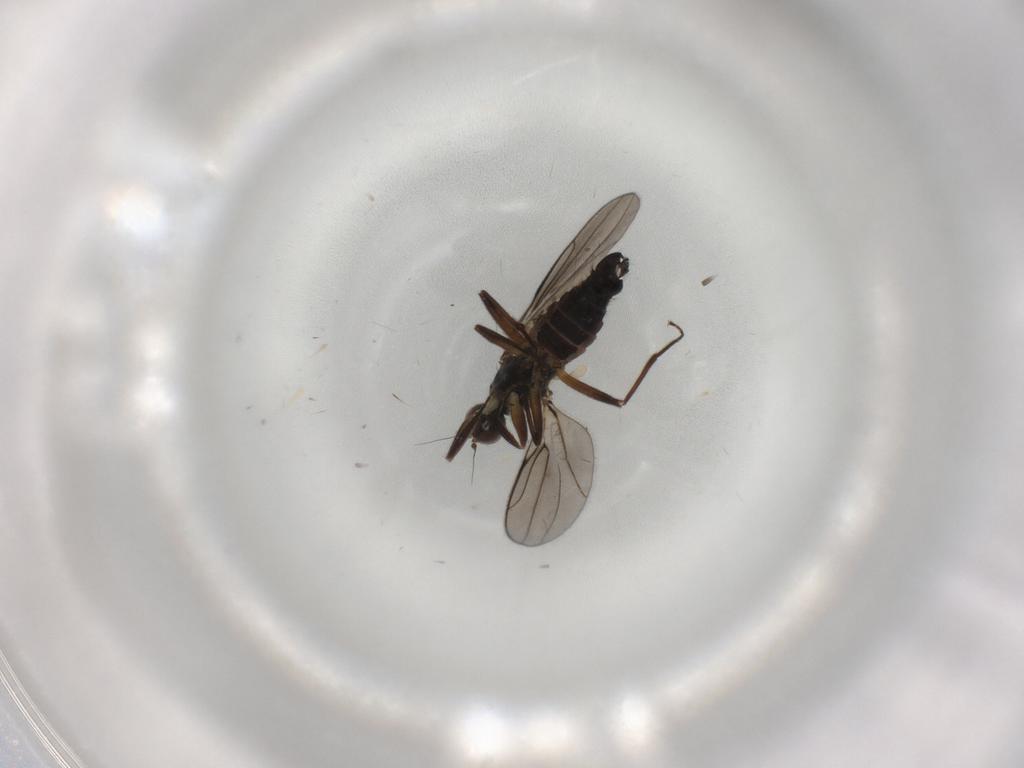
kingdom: Animalia
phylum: Arthropoda
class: Insecta
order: Diptera
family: Hybotidae
